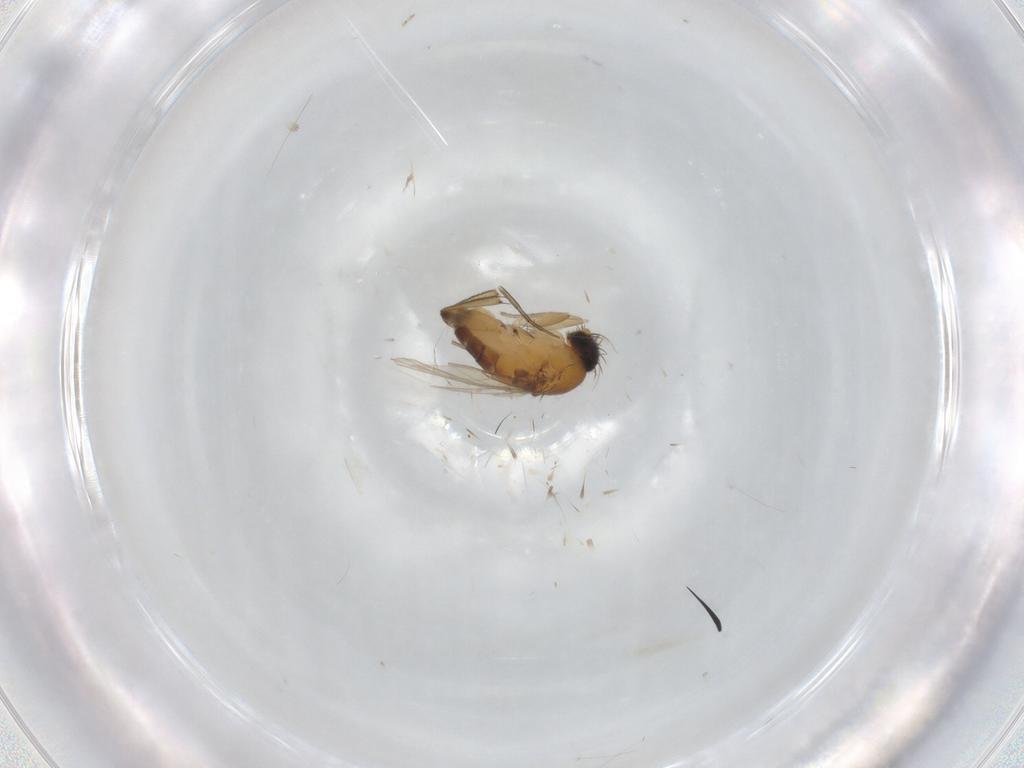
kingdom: Animalia
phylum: Arthropoda
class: Insecta
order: Diptera
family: Phoridae
